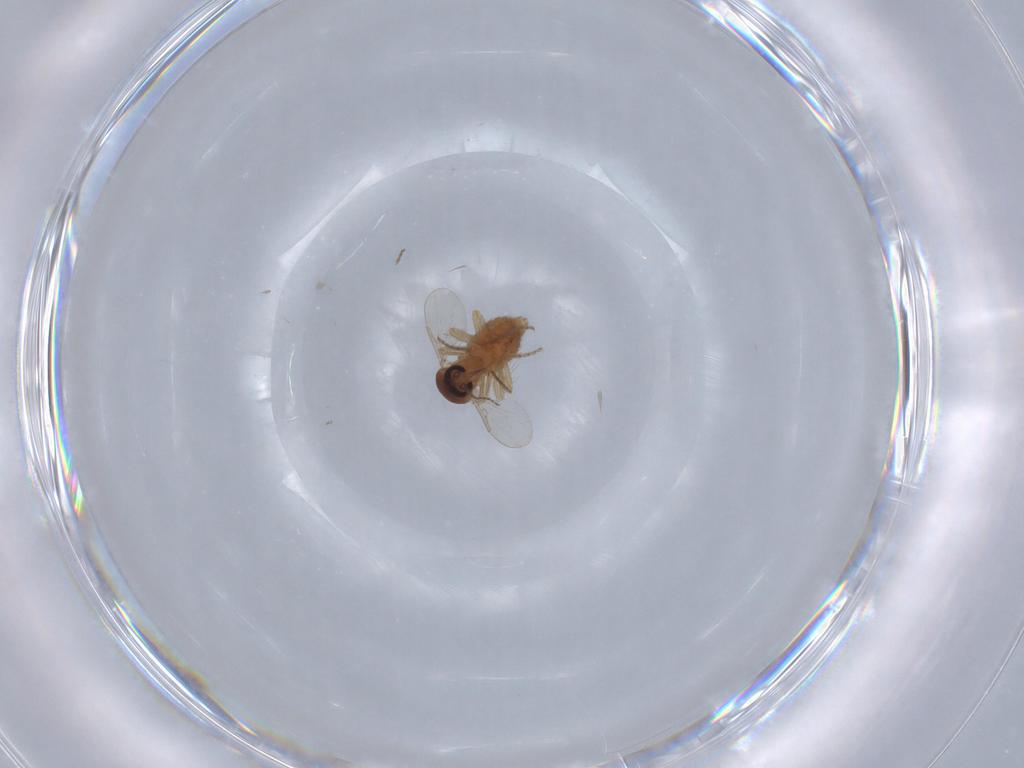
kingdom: Animalia
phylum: Arthropoda
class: Insecta
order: Diptera
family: Ceratopogonidae
